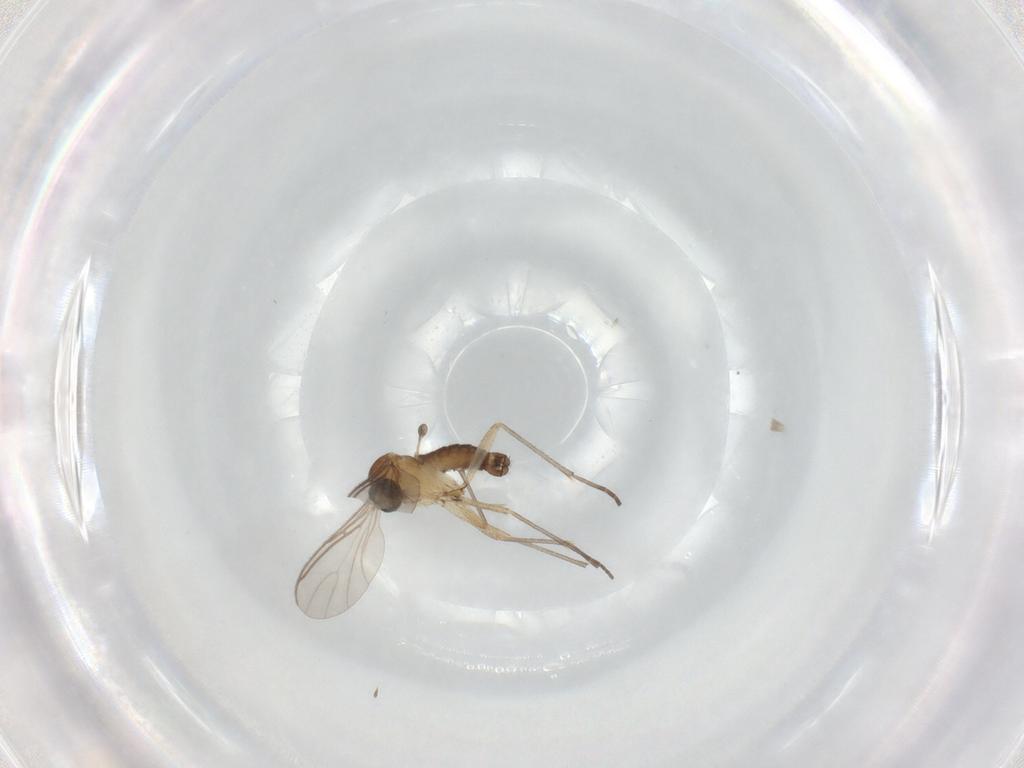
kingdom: Animalia
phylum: Arthropoda
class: Insecta
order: Diptera
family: Sciaridae
